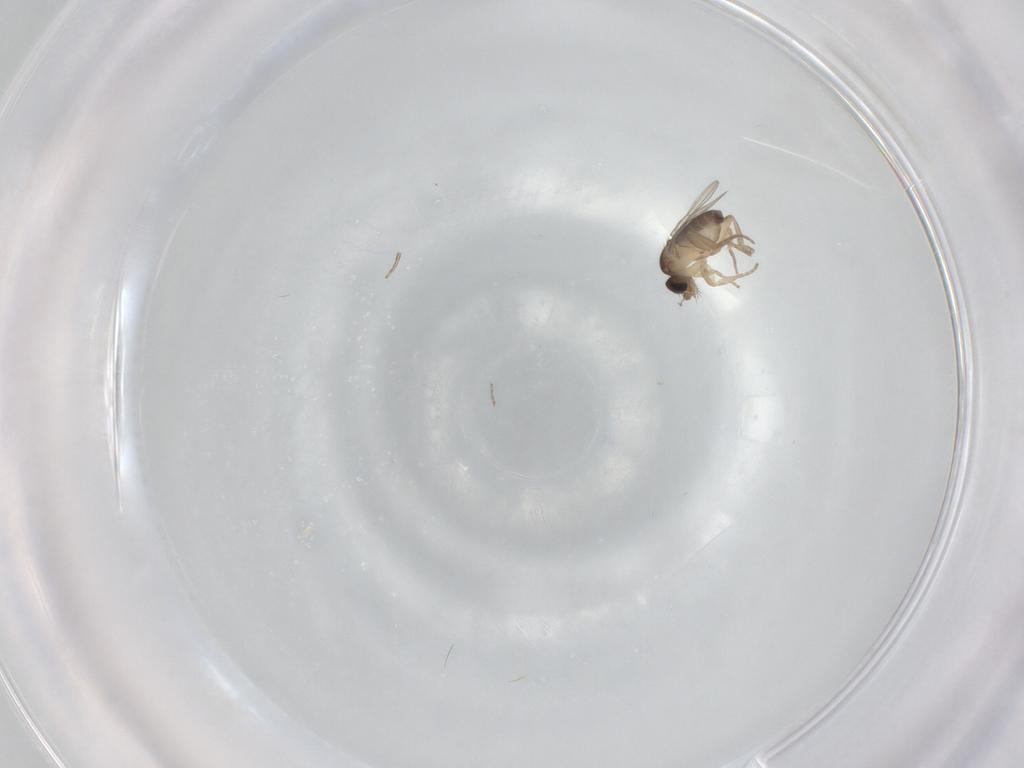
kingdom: Animalia
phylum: Arthropoda
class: Insecta
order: Diptera
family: Phoridae
